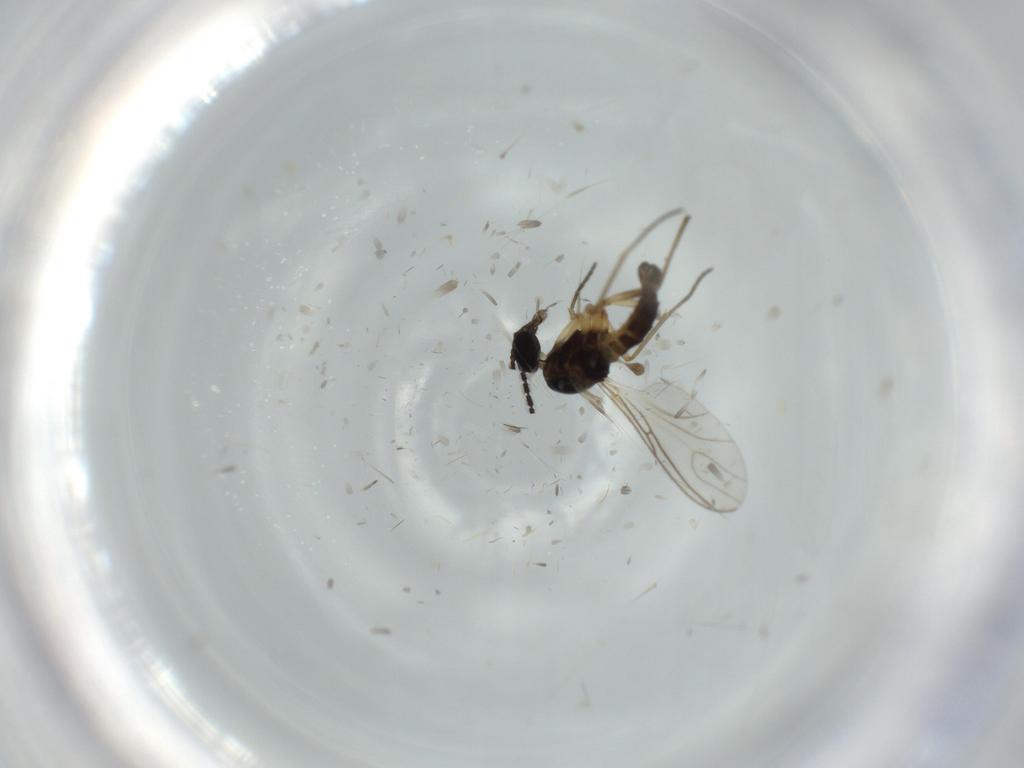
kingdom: Animalia
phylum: Arthropoda
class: Insecta
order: Diptera
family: Sciaridae
